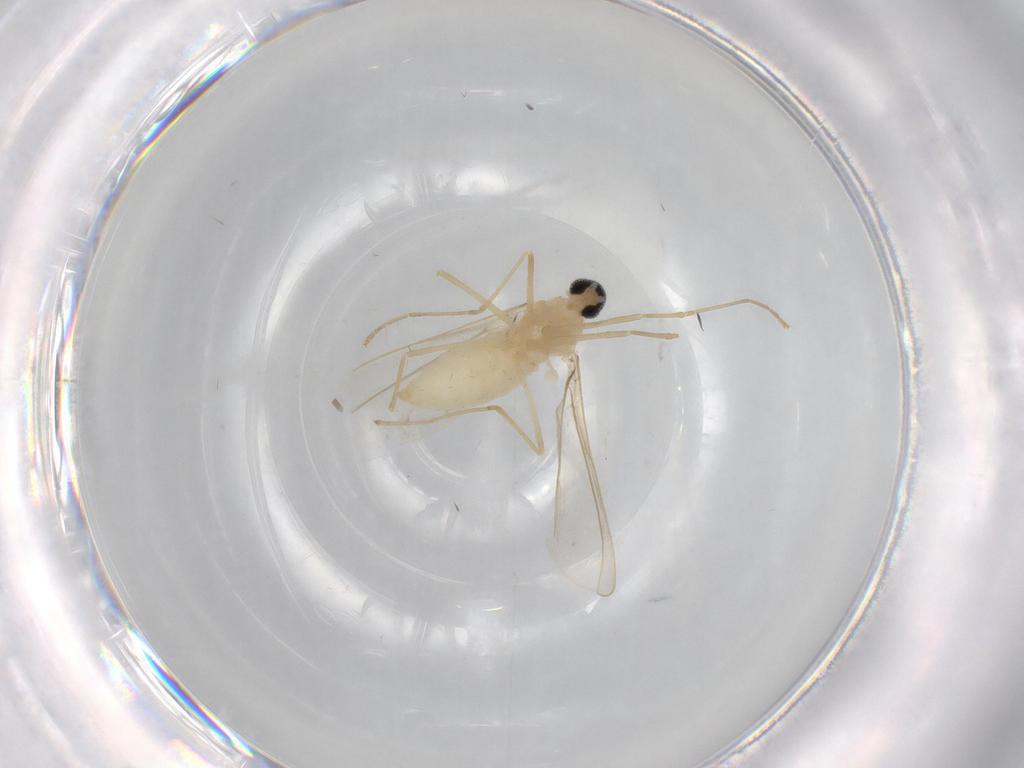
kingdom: Animalia
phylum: Arthropoda
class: Insecta
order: Diptera
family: Cecidomyiidae
